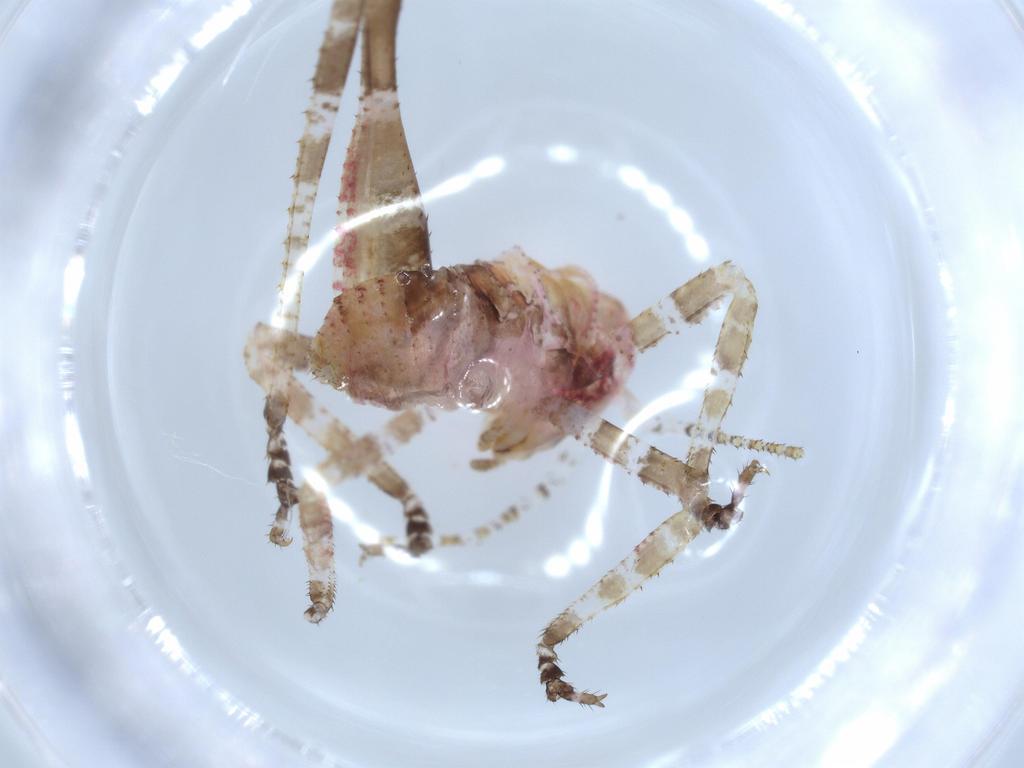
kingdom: Animalia
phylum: Arthropoda
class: Insecta
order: Orthoptera
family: Tettigoniidae
